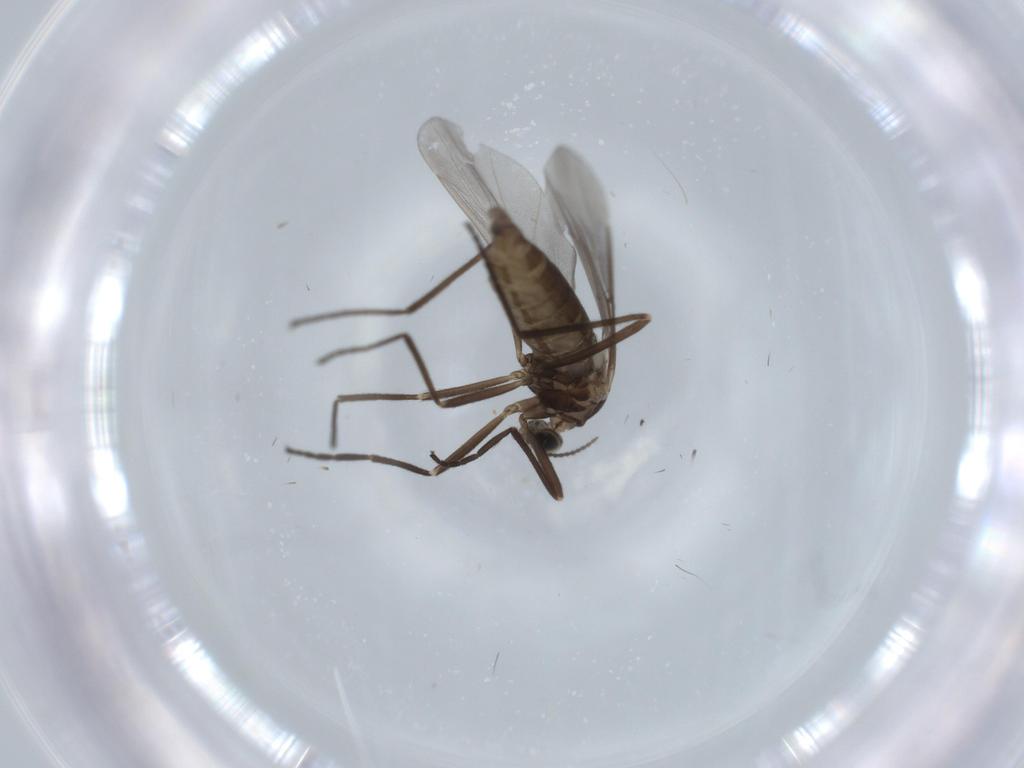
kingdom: Animalia
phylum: Arthropoda
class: Insecta
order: Diptera
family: Cecidomyiidae
